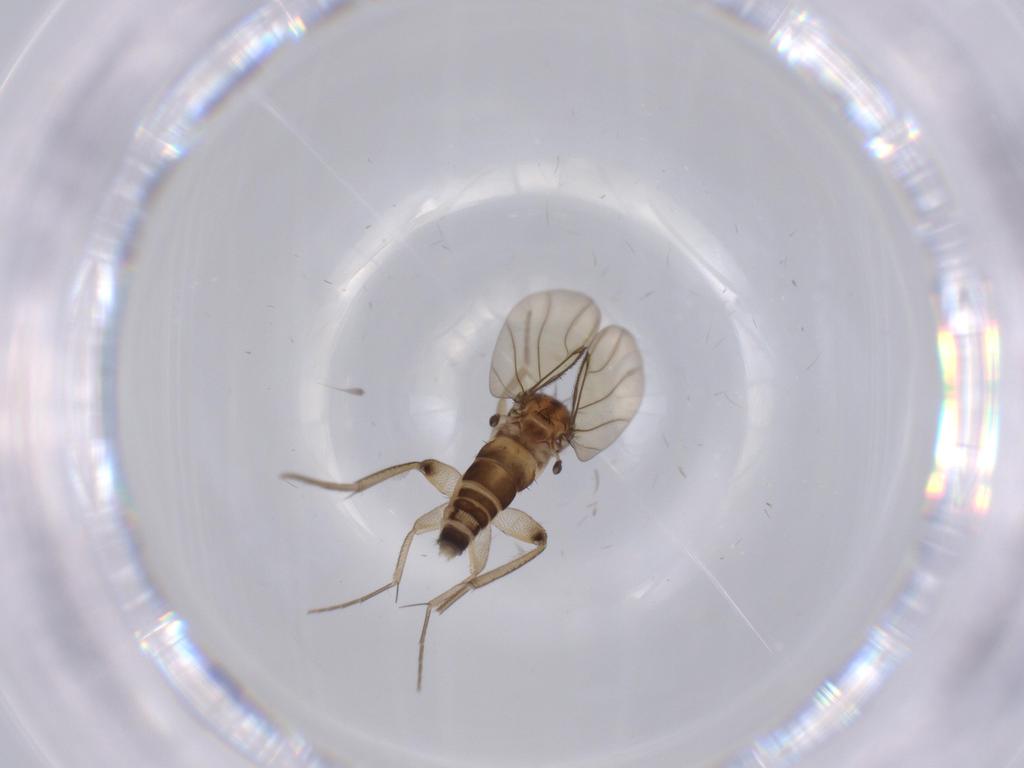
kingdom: Animalia
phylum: Arthropoda
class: Insecta
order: Diptera
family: Phoridae
